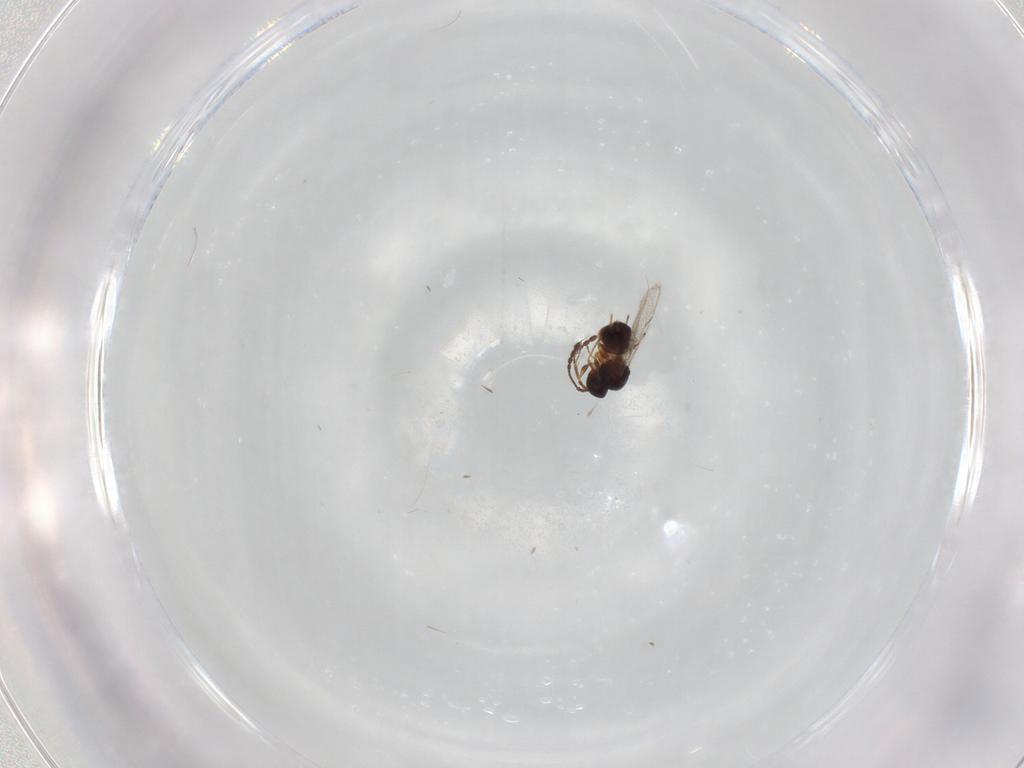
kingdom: Animalia
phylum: Arthropoda
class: Insecta
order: Hymenoptera
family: Figitidae
